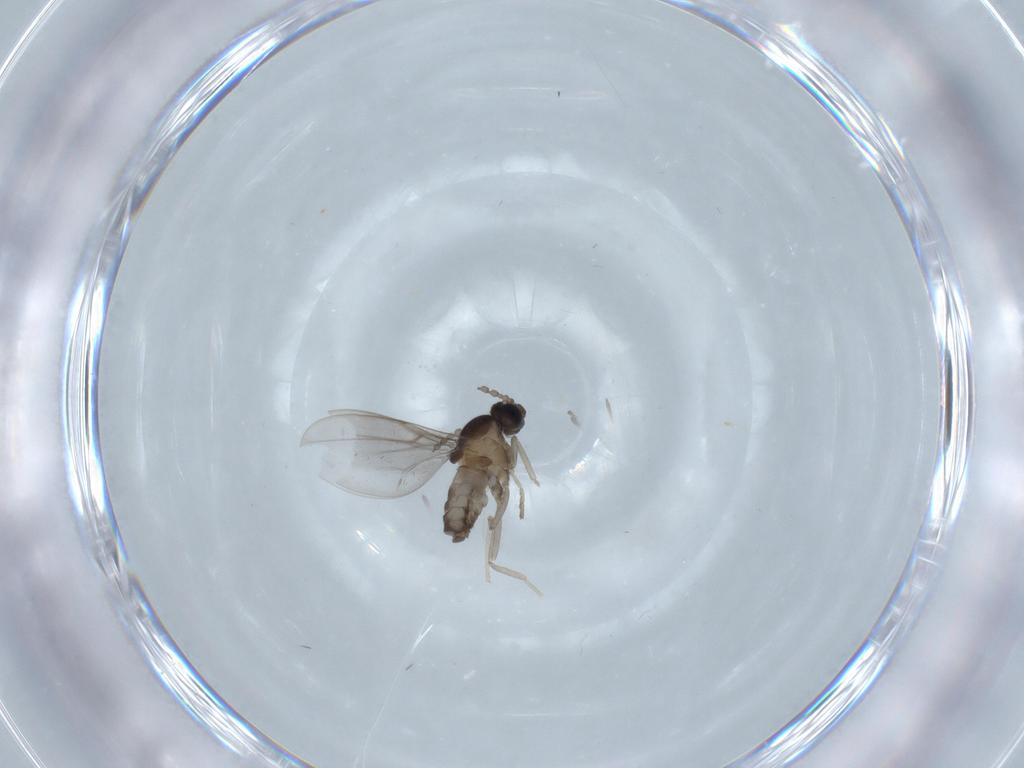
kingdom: Animalia
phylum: Arthropoda
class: Insecta
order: Diptera
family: Cecidomyiidae
